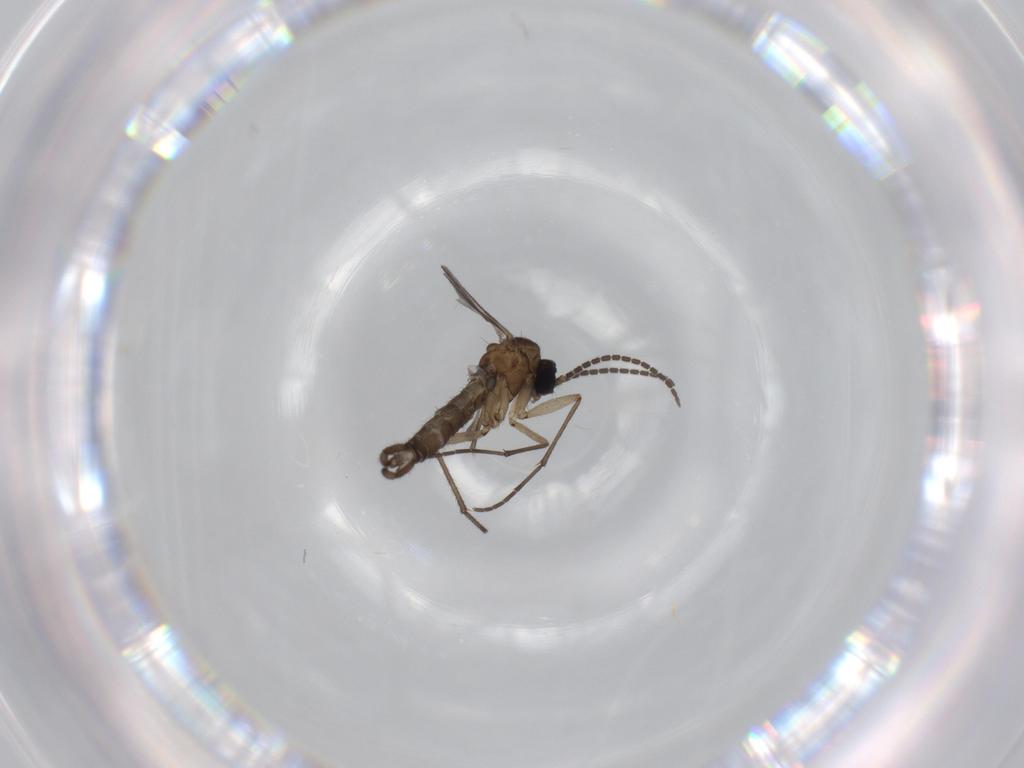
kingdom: Animalia
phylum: Arthropoda
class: Insecta
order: Diptera
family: Sciaridae
